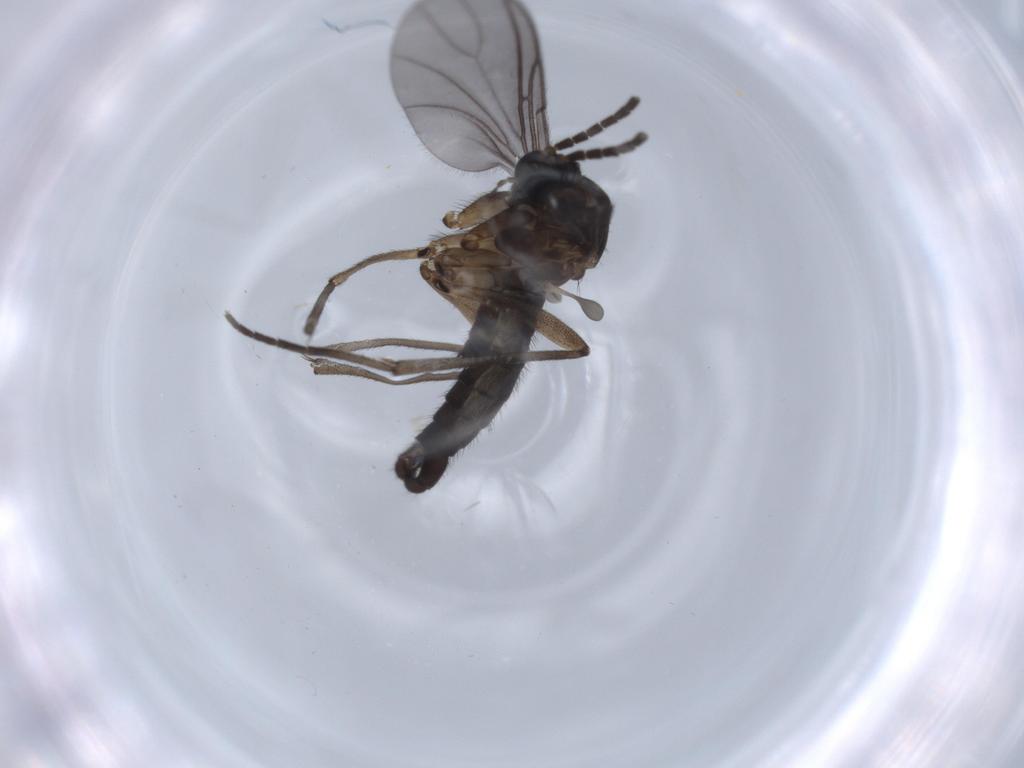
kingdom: Animalia
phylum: Arthropoda
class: Insecta
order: Diptera
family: Sciaridae
